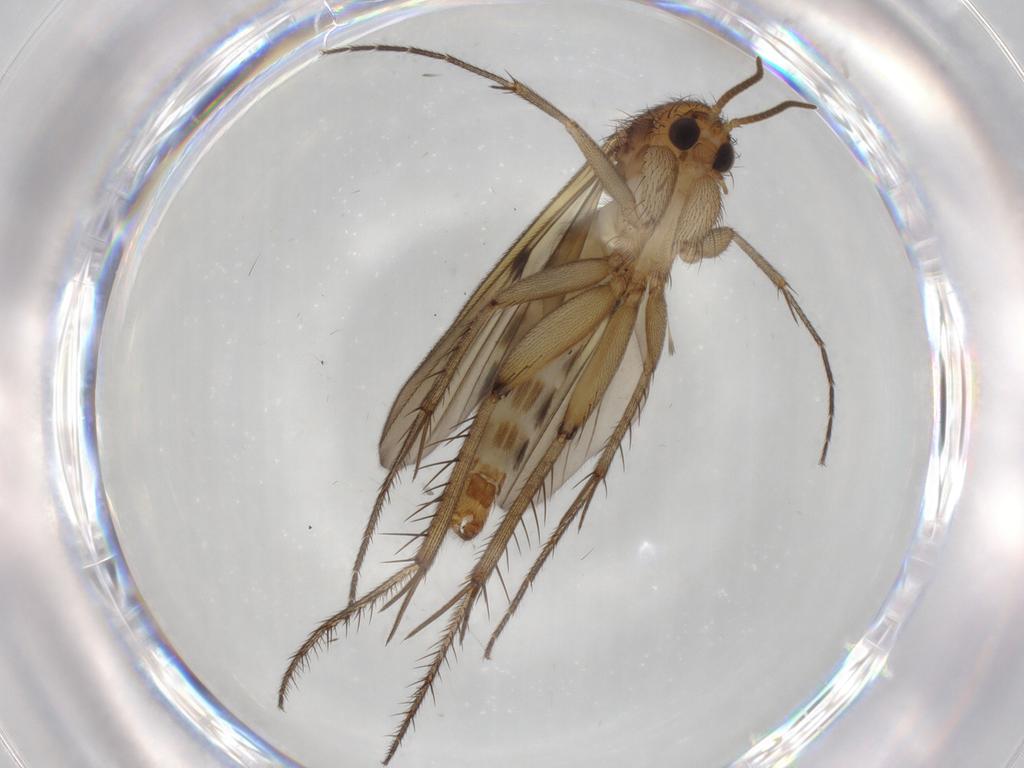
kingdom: Animalia
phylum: Arthropoda
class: Insecta
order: Diptera
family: Mycetophilidae
